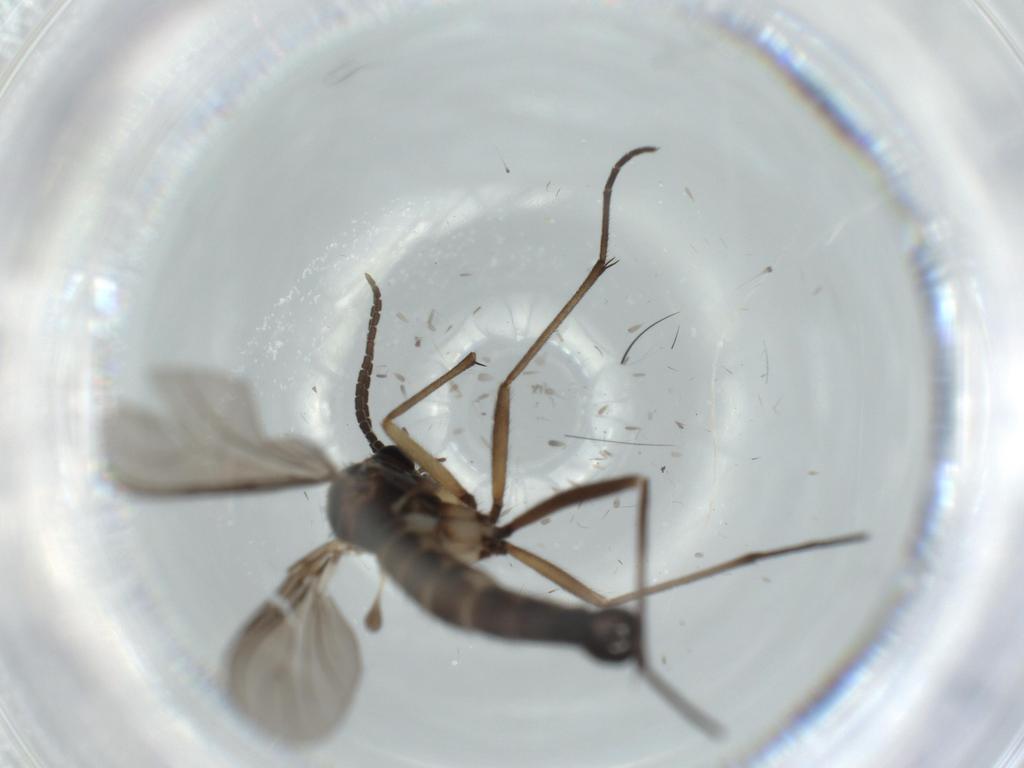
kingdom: Animalia
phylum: Arthropoda
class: Insecta
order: Diptera
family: Sciaridae
